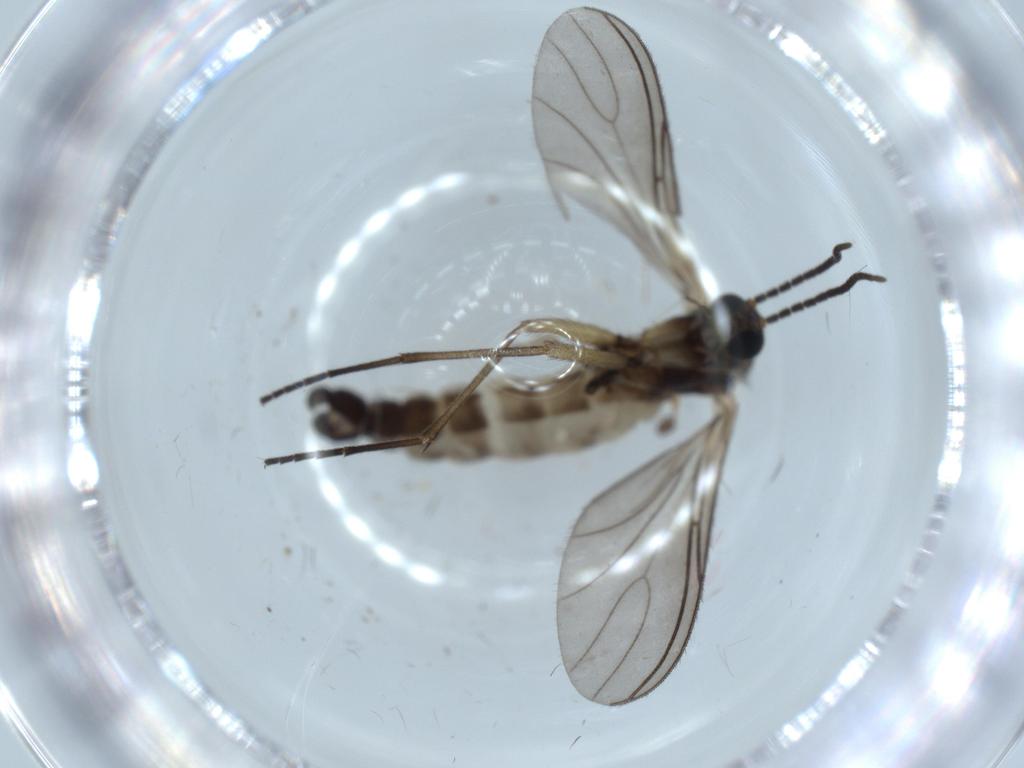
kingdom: Animalia
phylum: Arthropoda
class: Insecta
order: Diptera
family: Sciaridae
